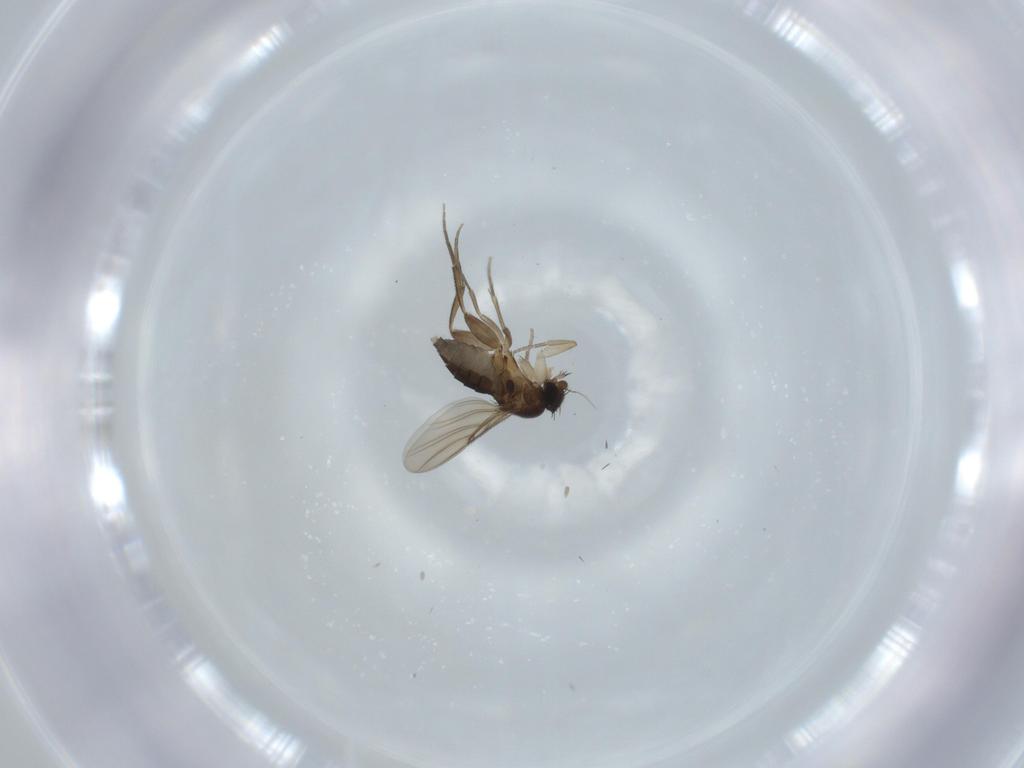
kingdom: Animalia
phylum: Arthropoda
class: Insecta
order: Diptera
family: Phoridae
